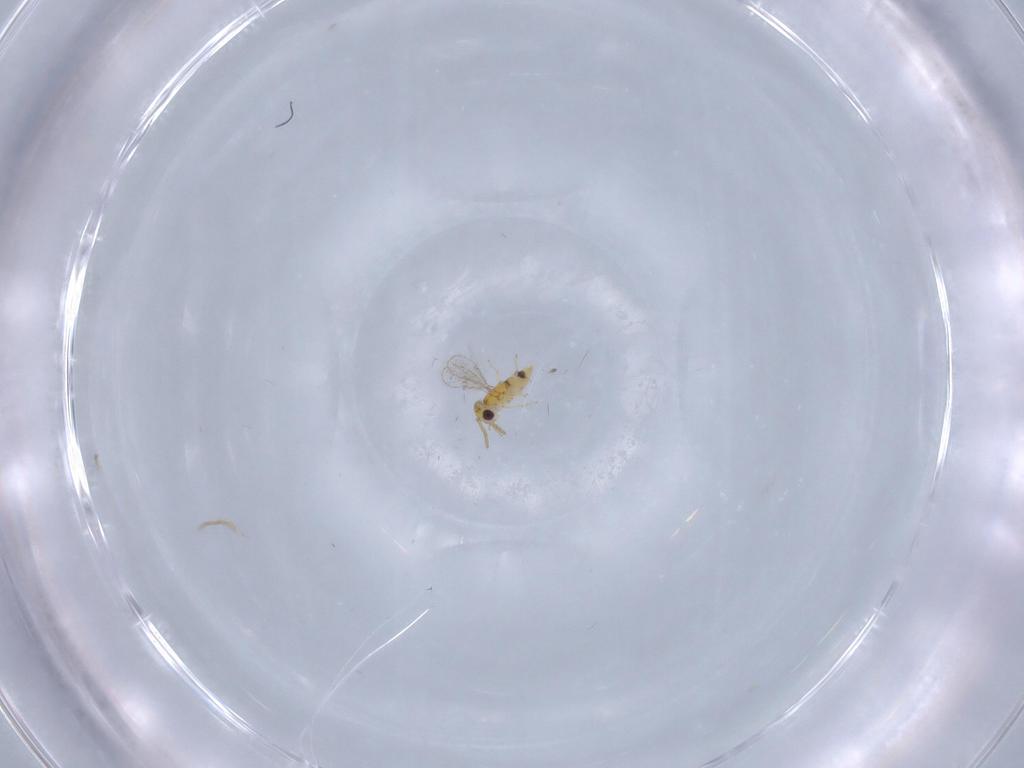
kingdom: Animalia
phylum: Arthropoda
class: Insecta
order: Hymenoptera
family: Aphelinidae
